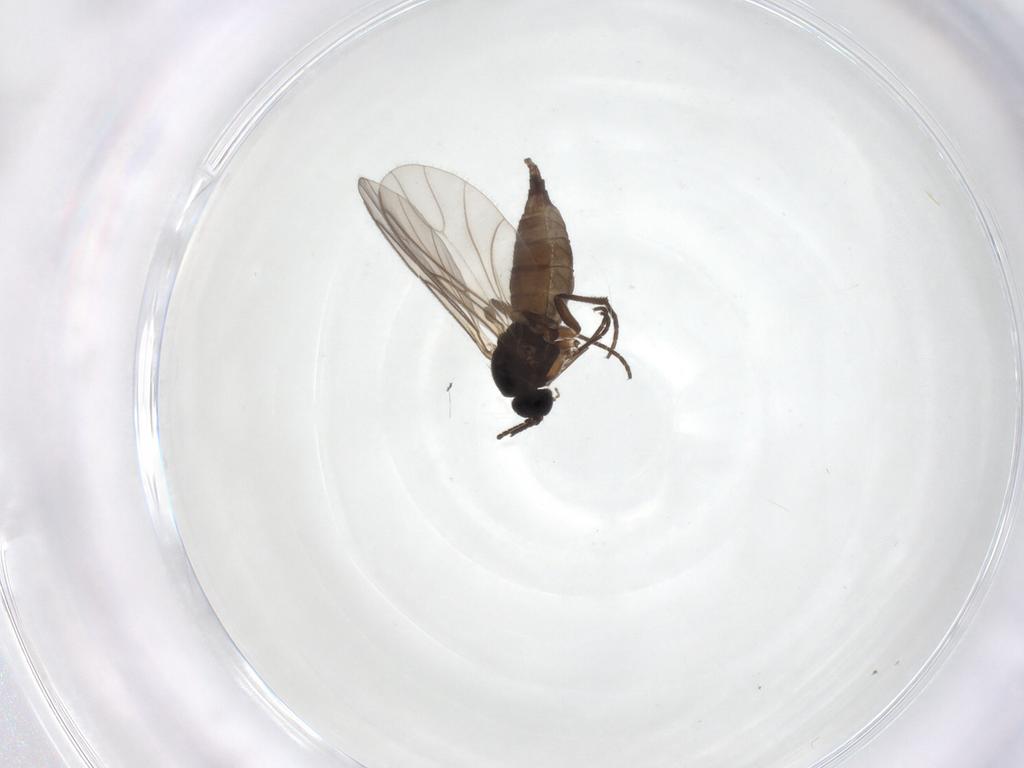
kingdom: Animalia
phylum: Arthropoda
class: Insecta
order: Diptera
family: Sciaridae
